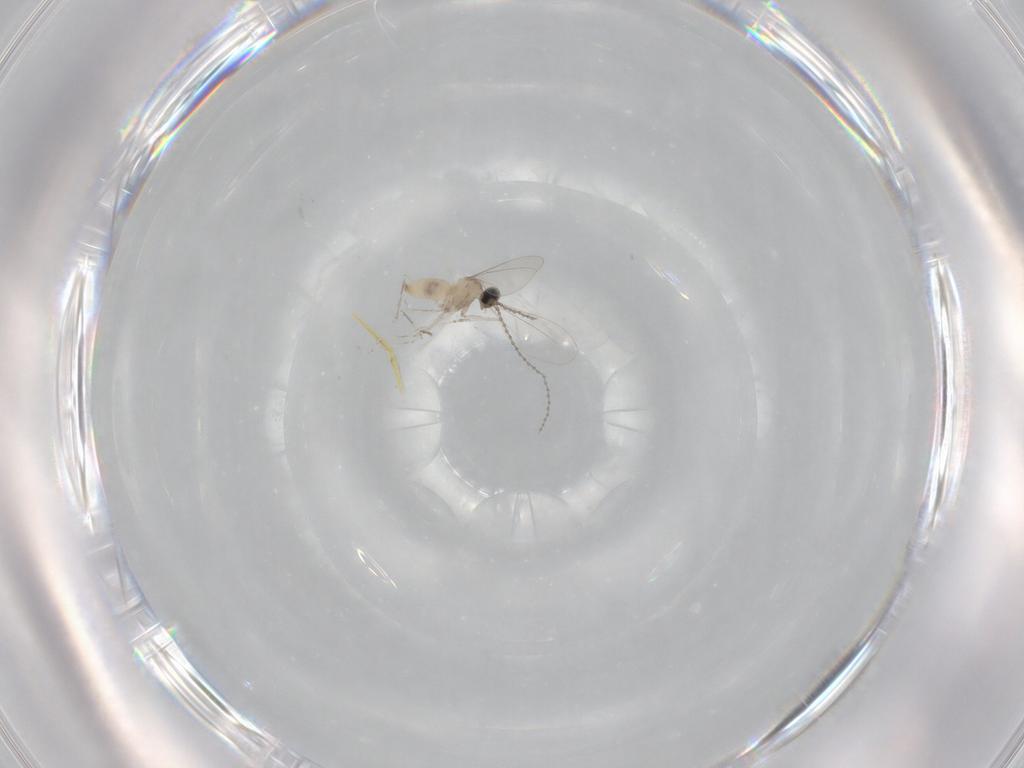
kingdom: Animalia
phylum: Arthropoda
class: Insecta
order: Diptera
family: Cecidomyiidae
